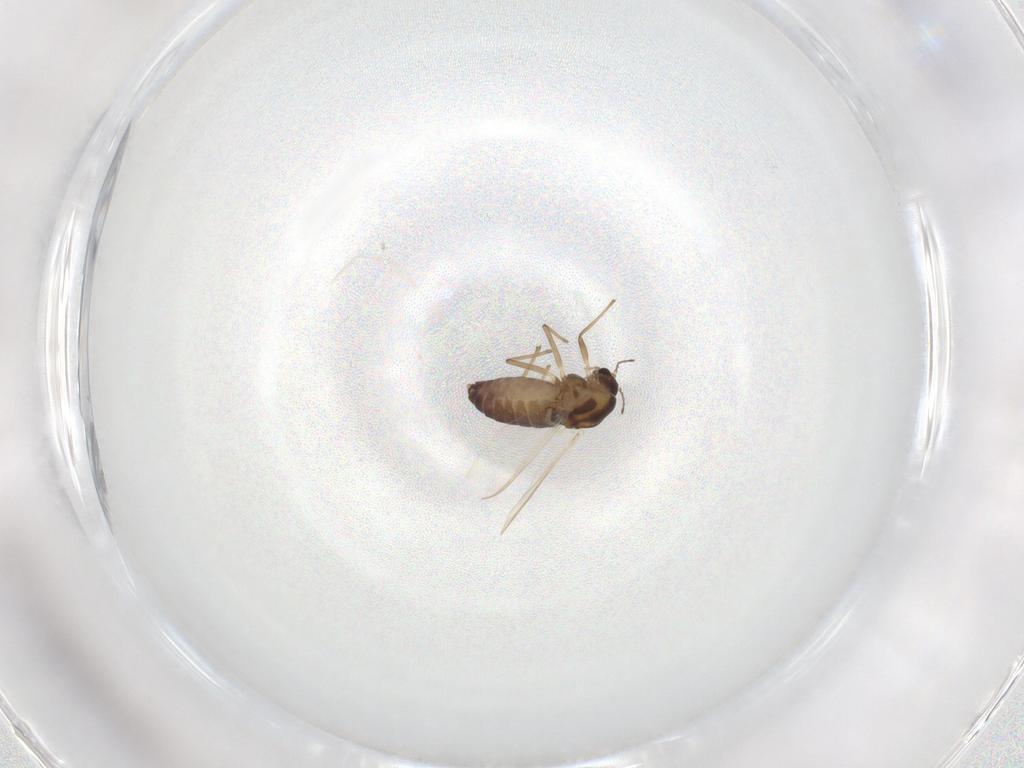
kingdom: Animalia
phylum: Arthropoda
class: Insecta
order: Diptera
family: Chironomidae
